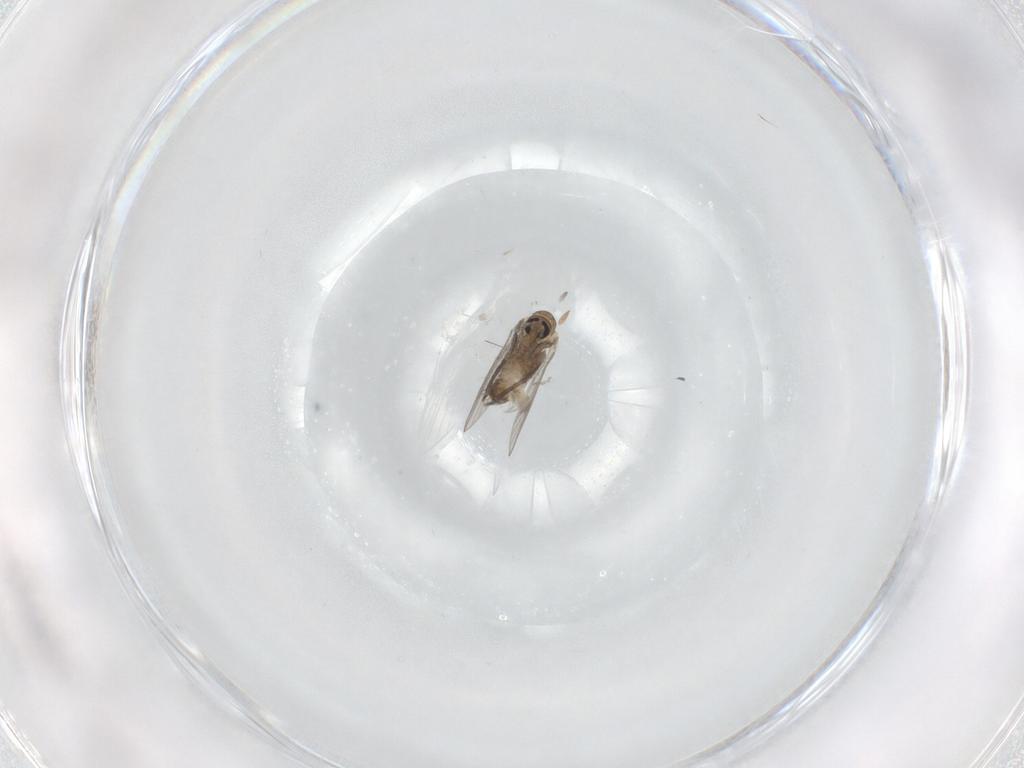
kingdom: Animalia
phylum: Arthropoda
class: Insecta
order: Diptera
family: Psychodidae
